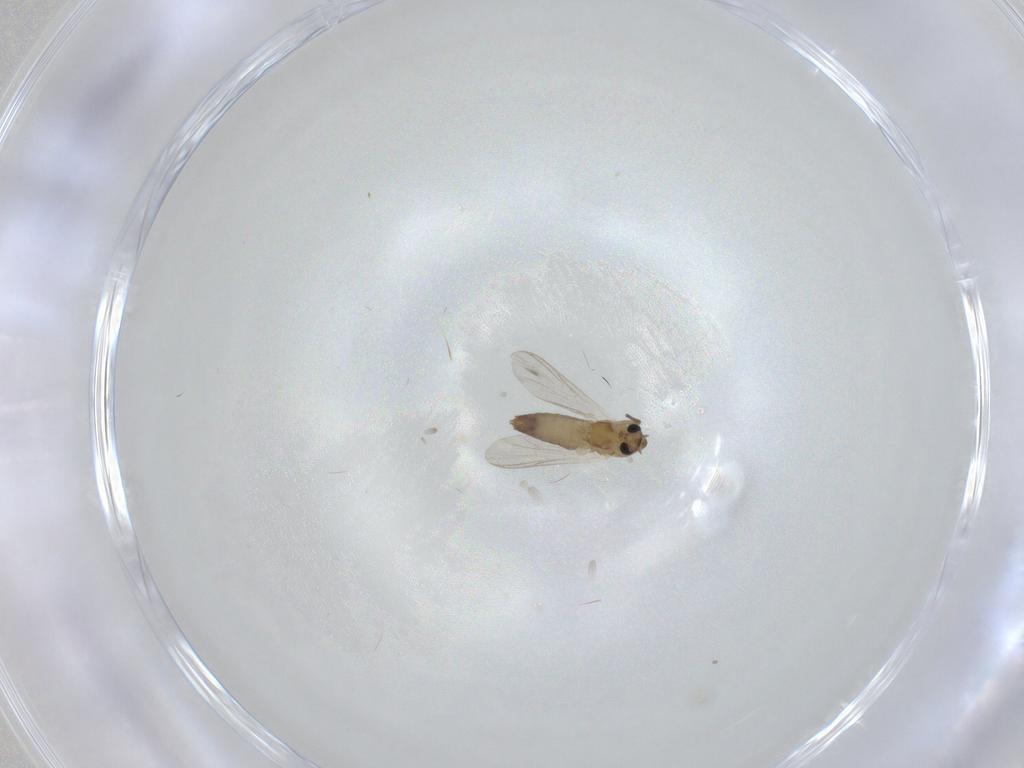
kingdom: Animalia
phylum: Arthropoda
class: Insecta
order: Diptera
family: Chironomidae
